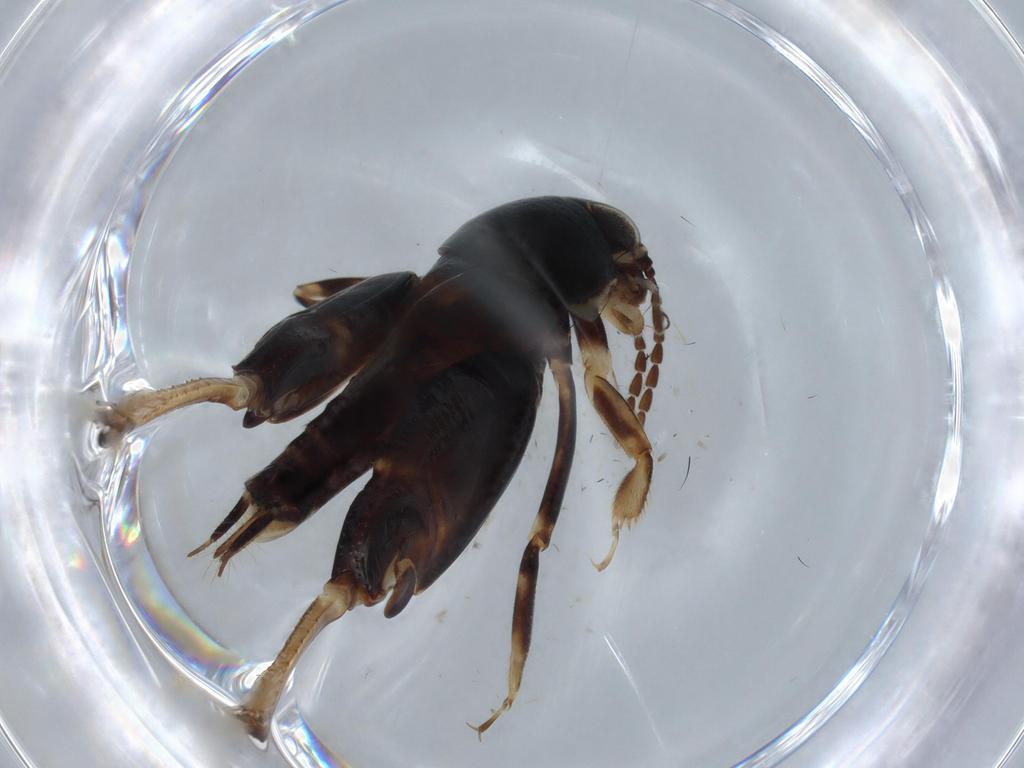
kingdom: Animalia
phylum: Arthropoda
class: Insecta
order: Orthoptera
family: Tridactylidae
